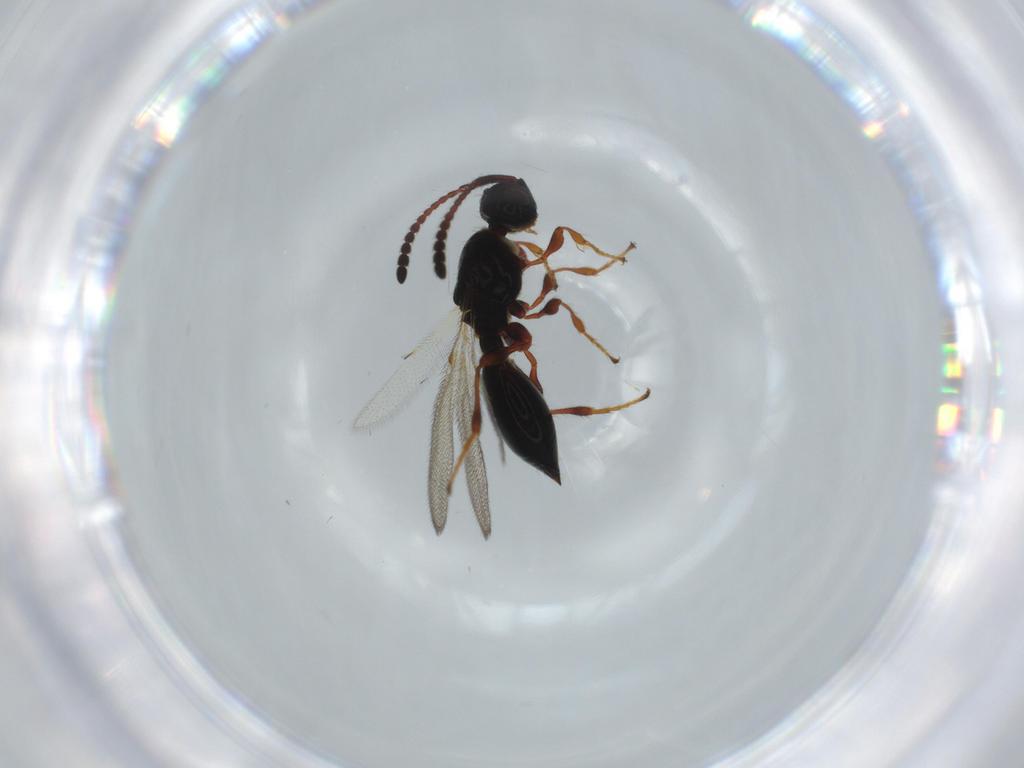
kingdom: Animalia
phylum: Arthropoda
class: Insecta
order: Hymenoptera
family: Diapriidae
